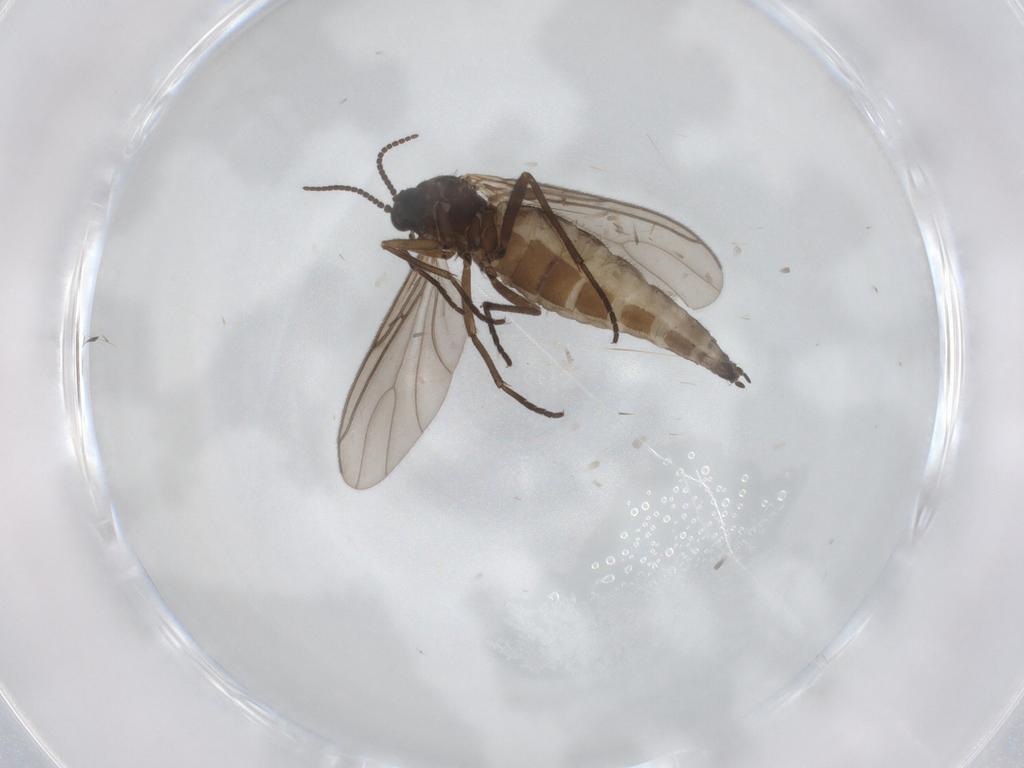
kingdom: Animalia
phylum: Arthropoda
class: Insecta
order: Diptera
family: Sciaridae
